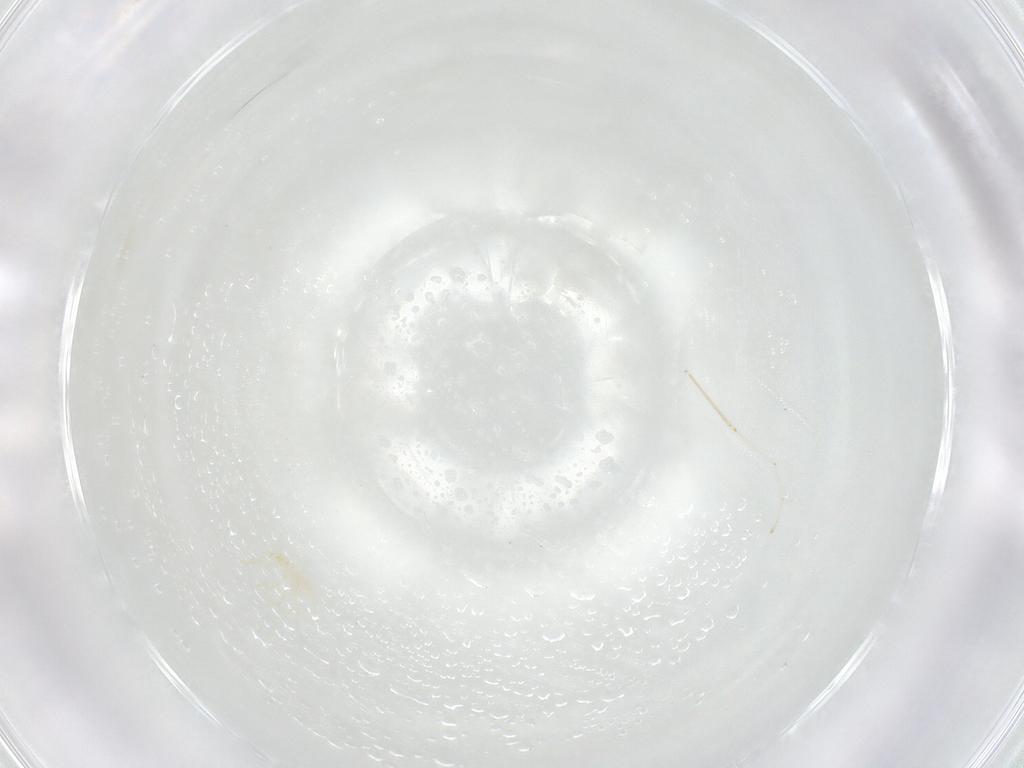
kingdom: Animalia
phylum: Arthropoda
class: Arachnida
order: Trombidiformes
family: Erythraeidae
